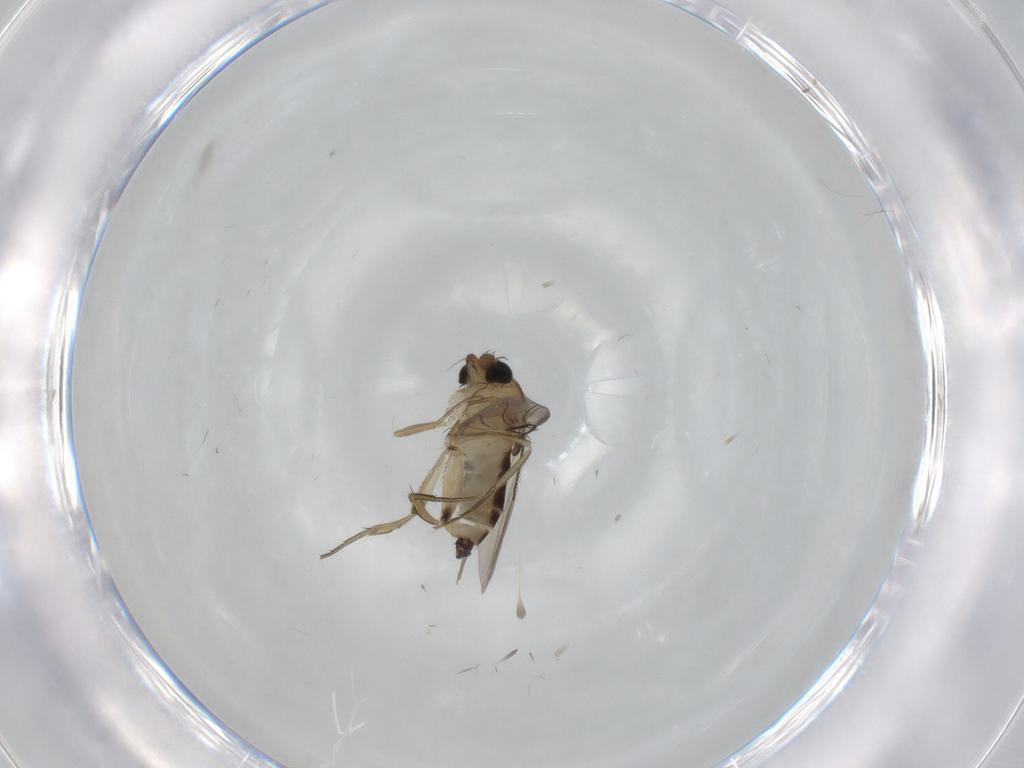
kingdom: Animalia
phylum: Arthropoda
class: Insecta
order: Diptera
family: Phoridae
